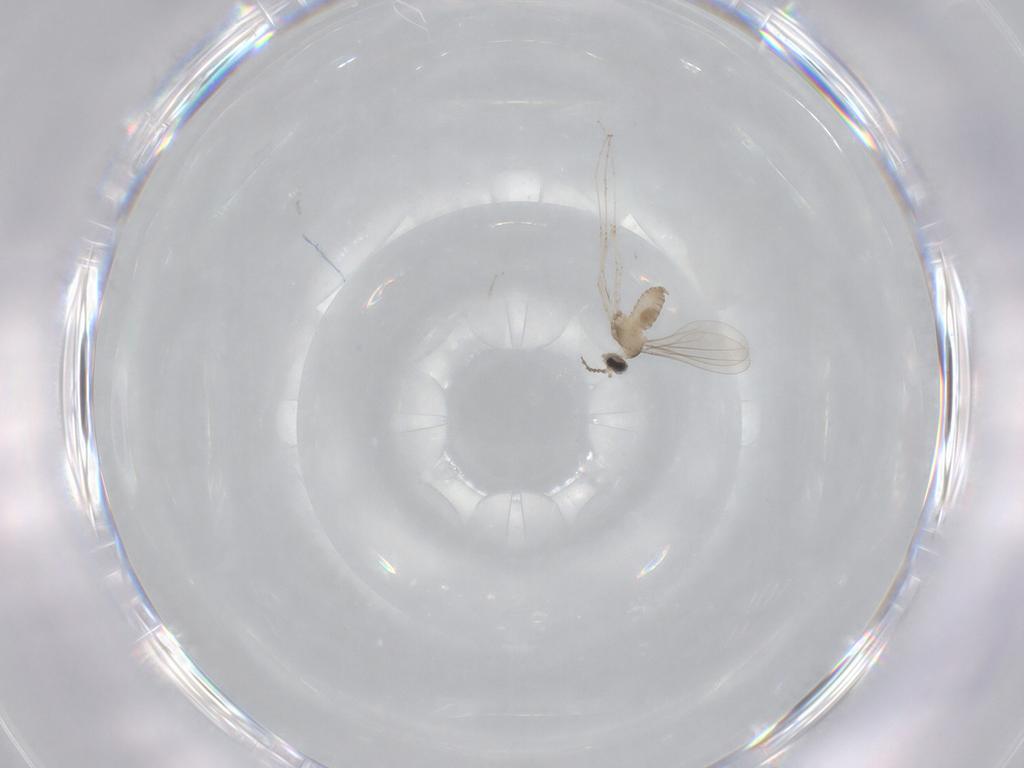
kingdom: Animalia
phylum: Arthropoda
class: Insecta
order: Diptera
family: Cecidomyiidae
